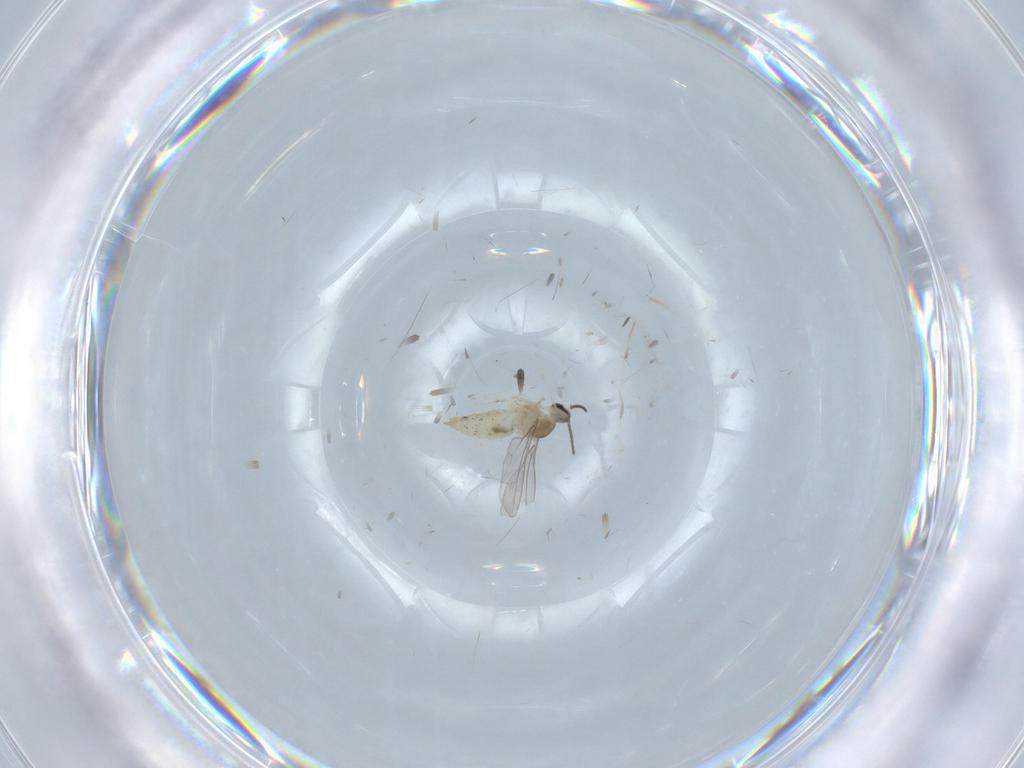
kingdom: Animalia
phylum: Arthropoda
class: Insecta
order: Diptera
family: Cecidomyiidae
